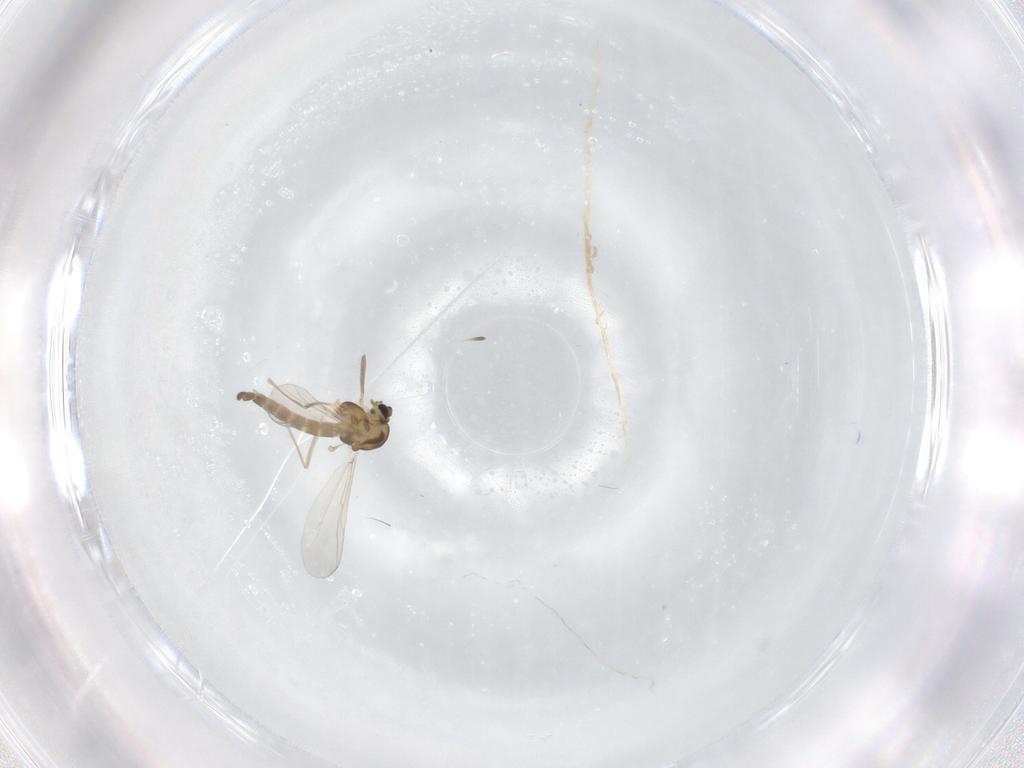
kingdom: Animalia
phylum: Arthropoda
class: Insecta
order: Diptera
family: Chironomidae
